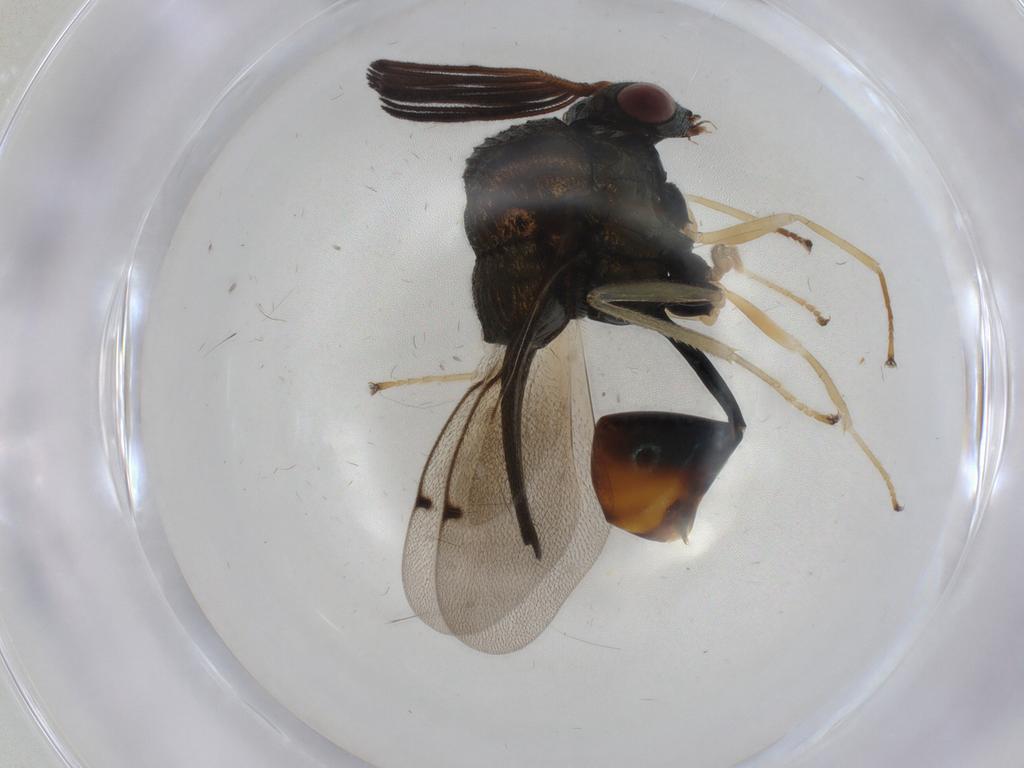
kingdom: Animalia
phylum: Arthropoda
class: Insecta
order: Hymenoptera
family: Formicidae
